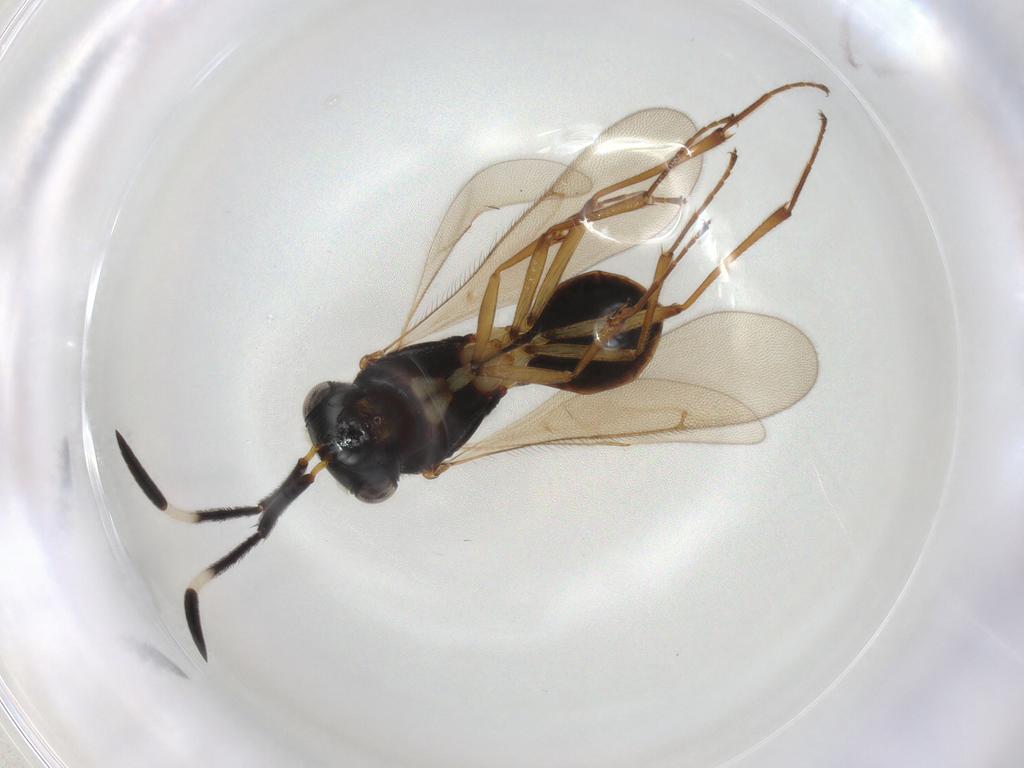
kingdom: Animalia
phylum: Arthropoda
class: Insecta
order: Hymenoptera
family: Scelionidae
